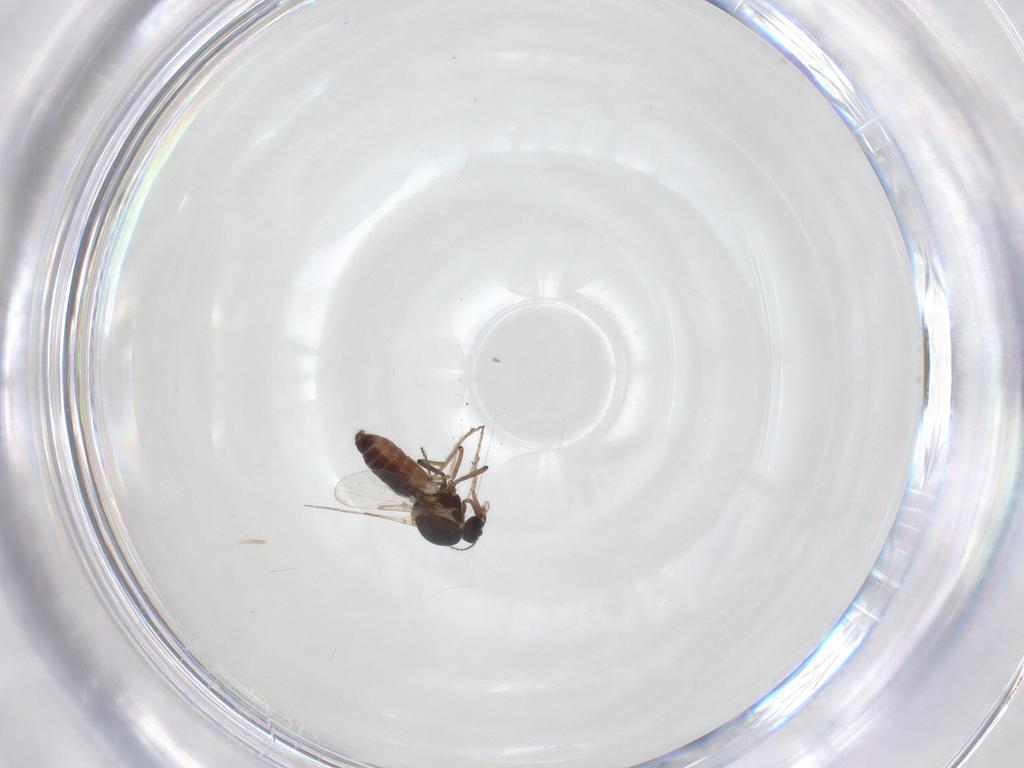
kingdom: Animalia
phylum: Arthropoda
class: Insecta
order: Diptera
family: Ceratopogonidae
